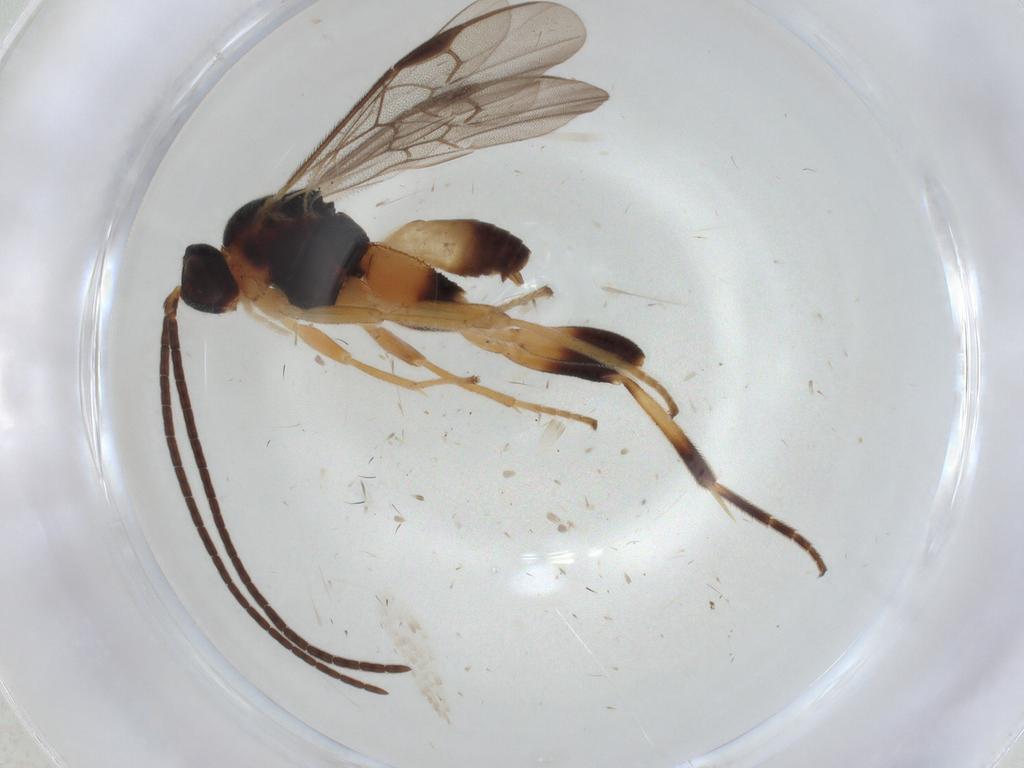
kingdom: Animalia
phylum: Arthropoda
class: Insecta
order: Hymenoptera
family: Braconidae
